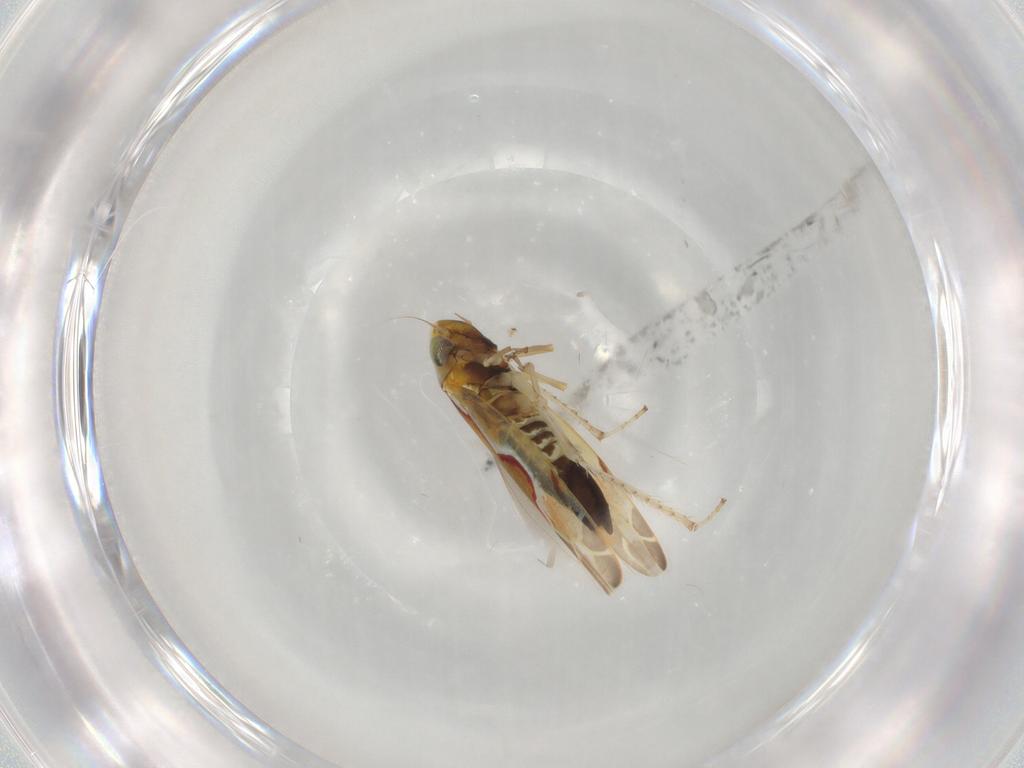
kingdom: Animalia
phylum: Arthropoda
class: Insecta
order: Hemiptera
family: Cicadellidae
